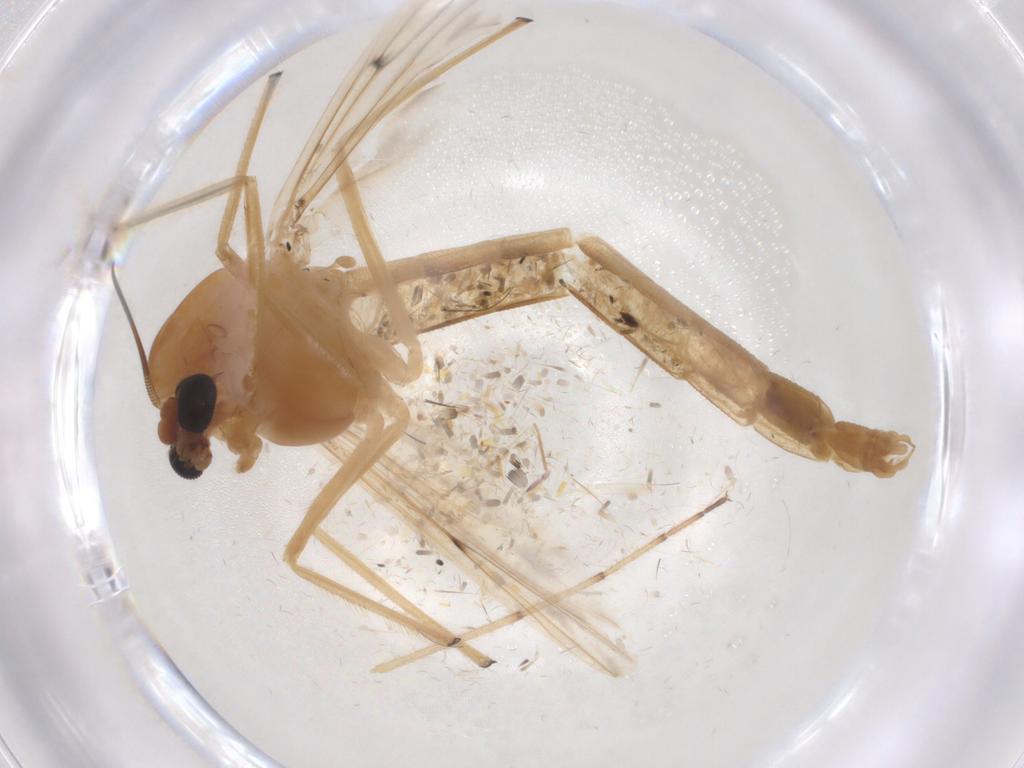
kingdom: Animalia
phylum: Arthropoda
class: Insecta
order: Diptera
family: Chironomidae
